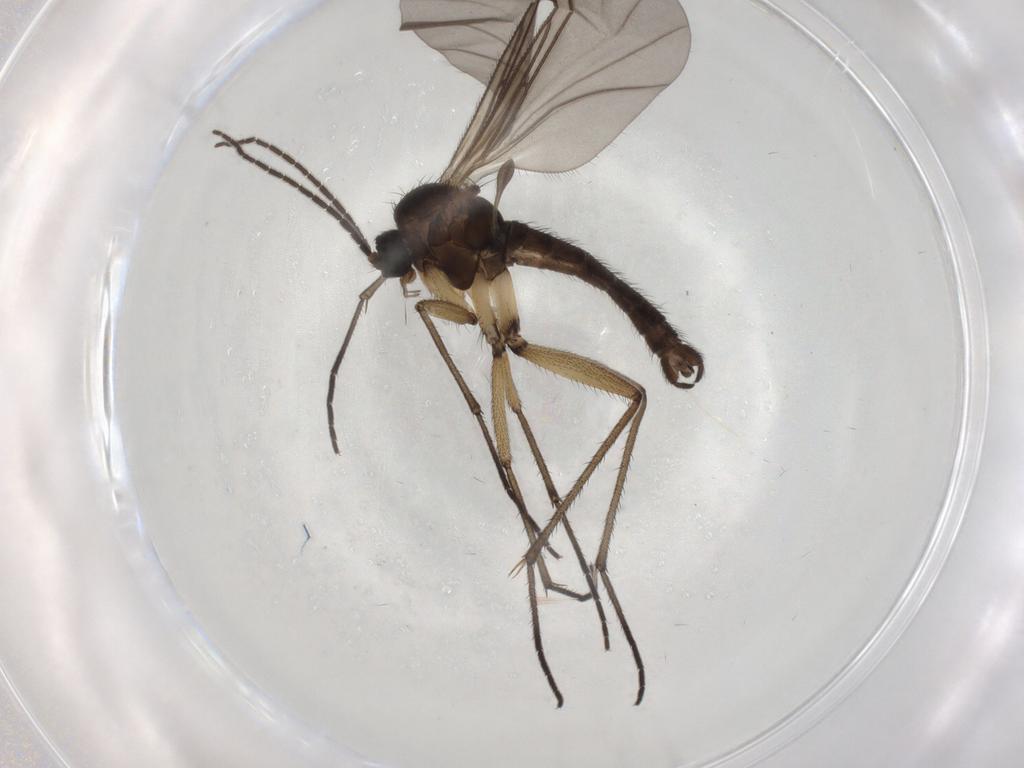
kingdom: Animalia
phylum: Arthropoda
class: Insecta
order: Diptera
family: Sciaridae
